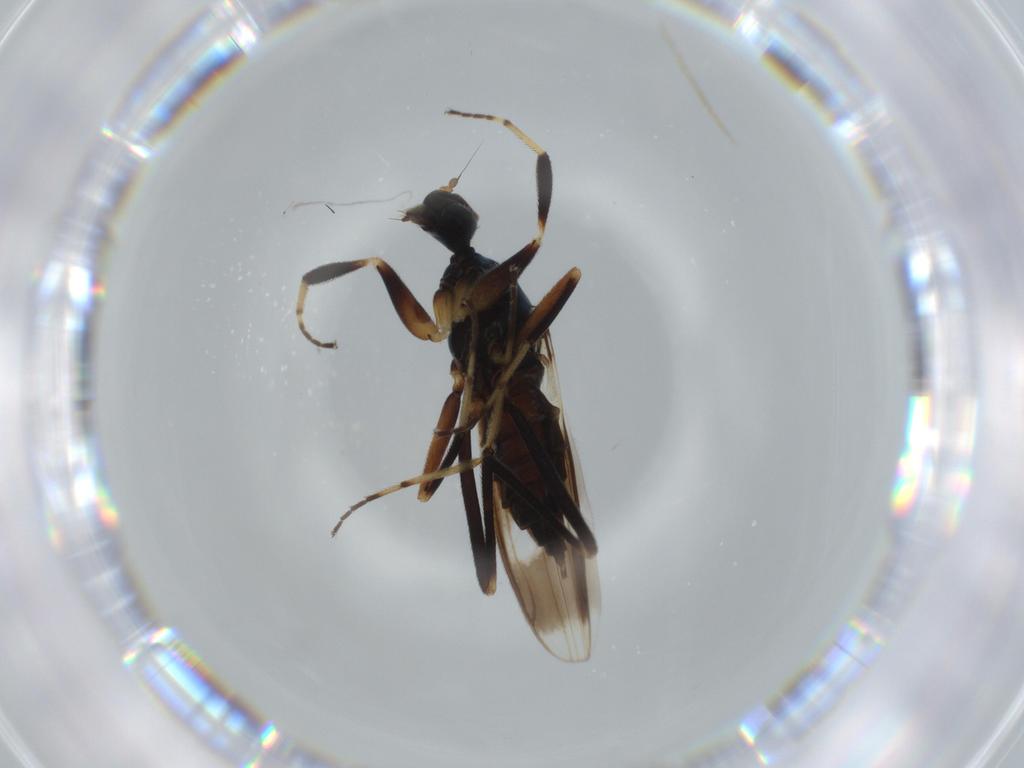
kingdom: Animalia
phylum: Arthropoda
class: Insecta
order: Diptera
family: Hybotidae
